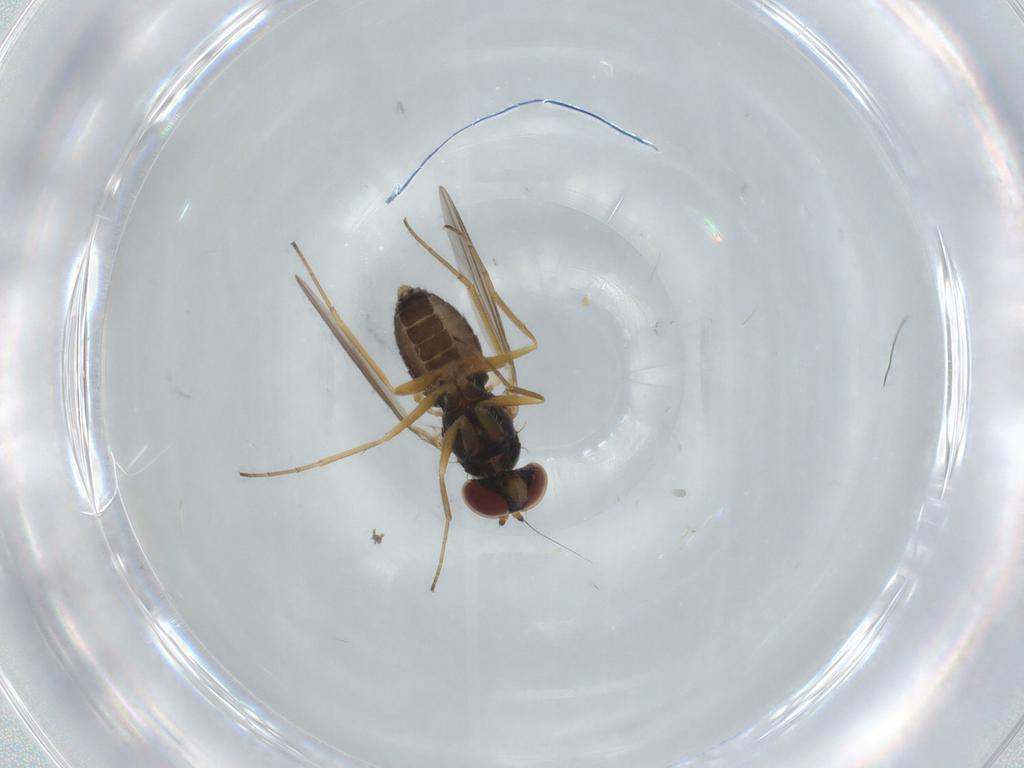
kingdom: Animalia
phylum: Arthropoda
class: Insecta
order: Diptera
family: Dolichopodidae
